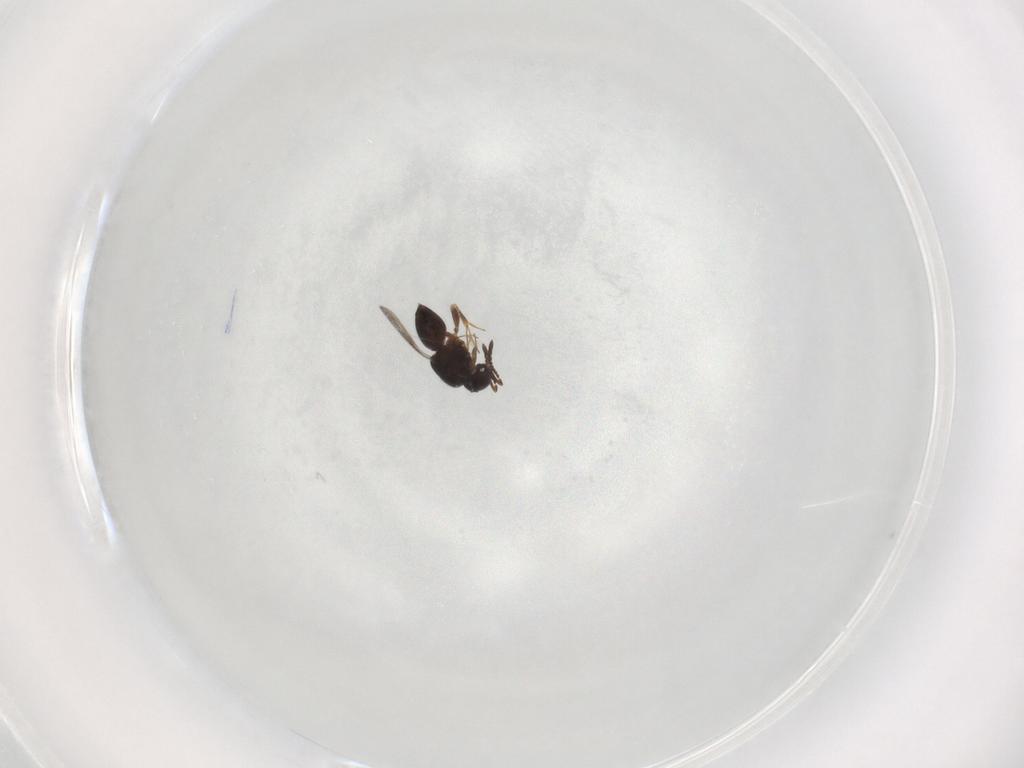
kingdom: Animalia
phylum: Arthropoda
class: Insecta
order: Hymenoptera
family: Ceraphronidae
